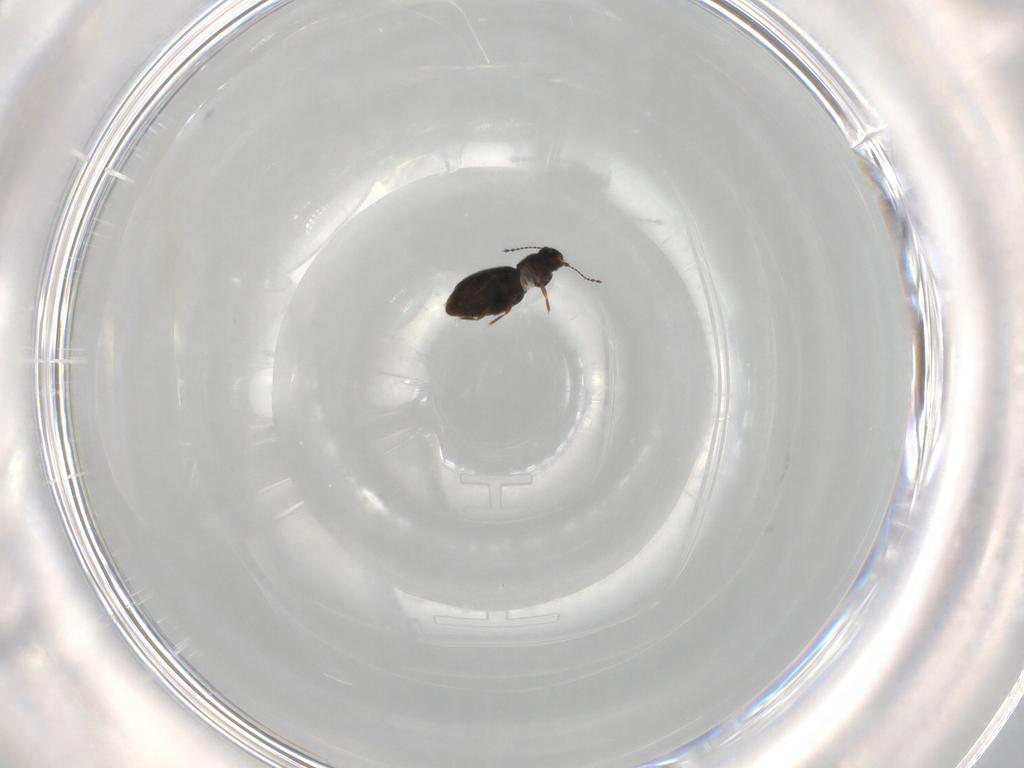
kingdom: Animalia
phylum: Arthropoda
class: Insecta
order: Coleoptera
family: Ptiliidae
